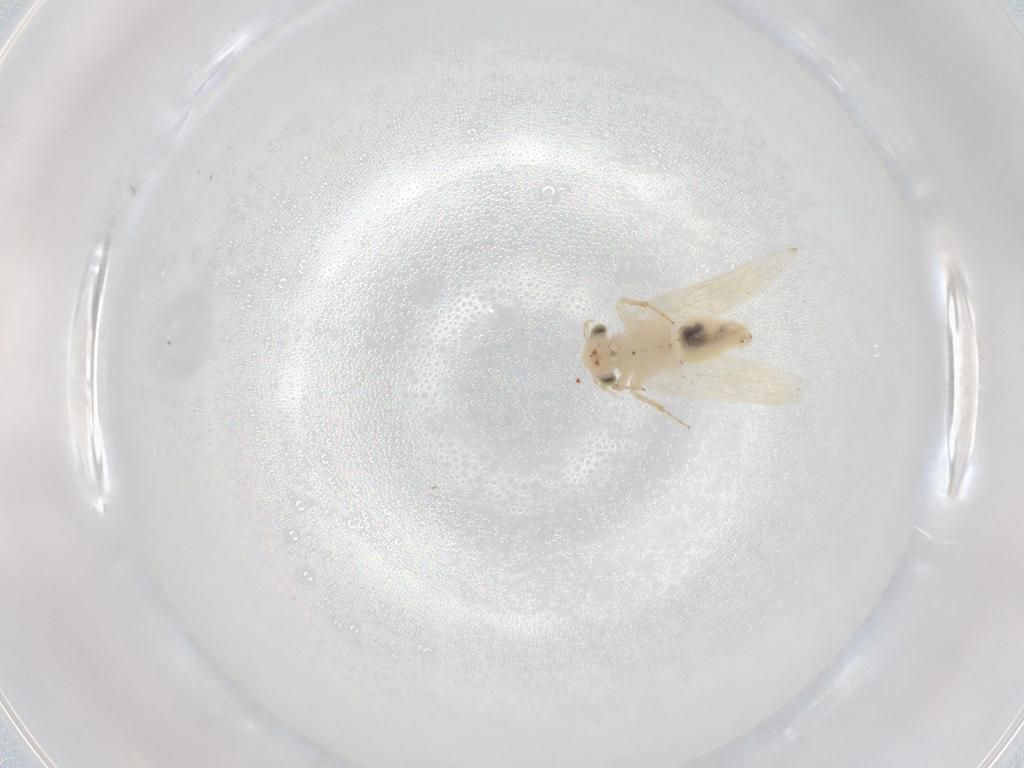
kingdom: Animalia
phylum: Arthropoda
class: Insecta
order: Psocodea
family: Lepidopsocidae
